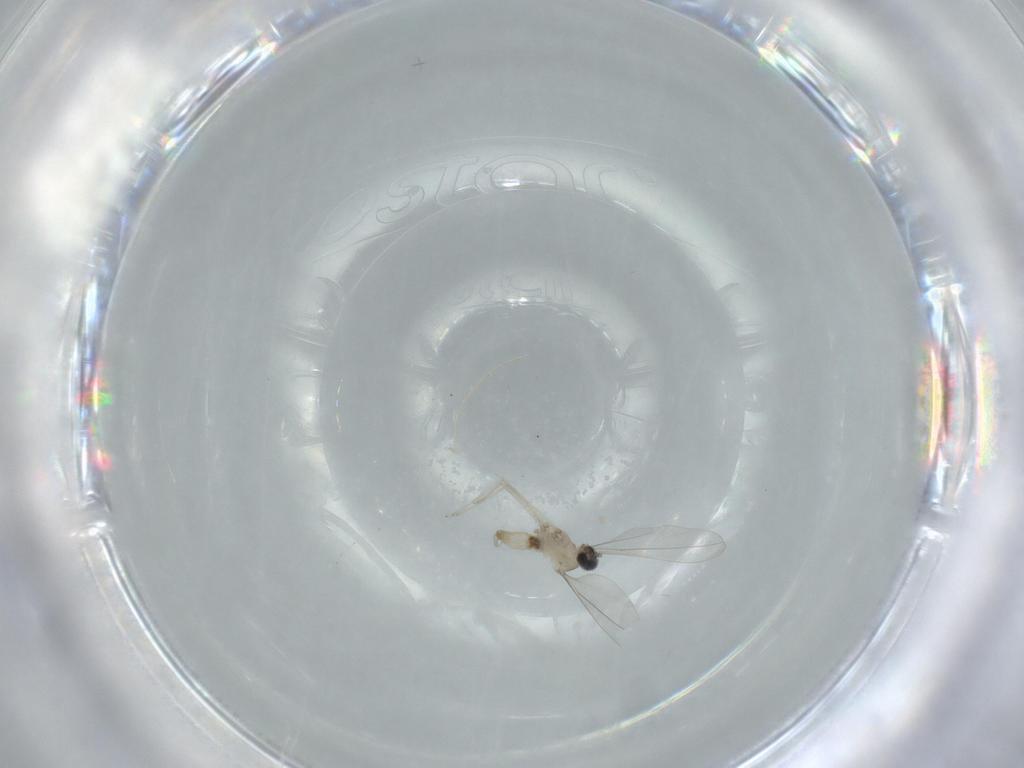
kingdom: Animalia
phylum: Arthropoda
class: Insecta
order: Diptera
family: Cecidomyiidae
